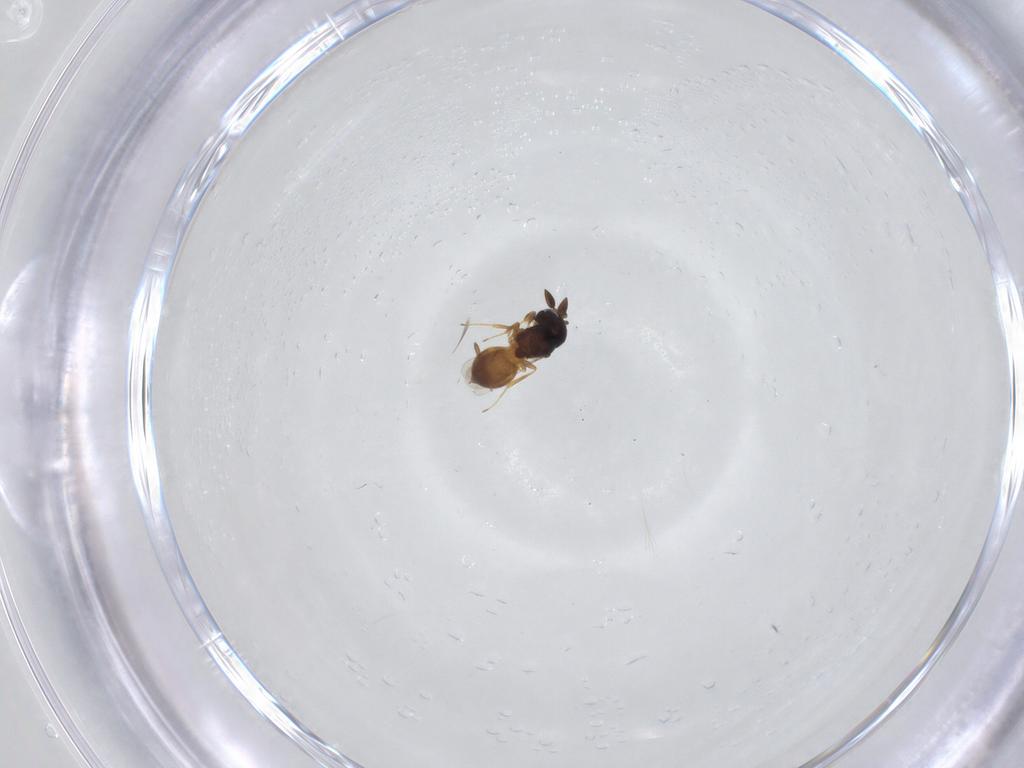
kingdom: Animalia
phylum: Arthropoda
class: Insecta
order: Hymenoptera
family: Scelionidae
